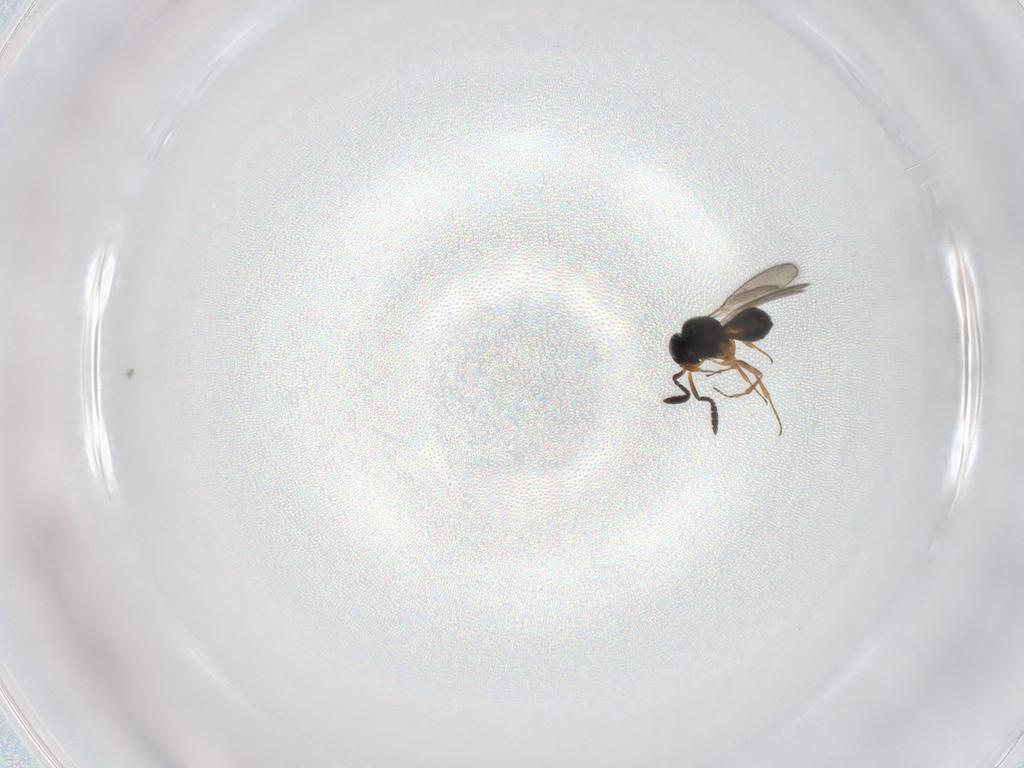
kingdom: Animalia
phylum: Arthropoda
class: Insecta
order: Hymenoptera
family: Scelionidae
